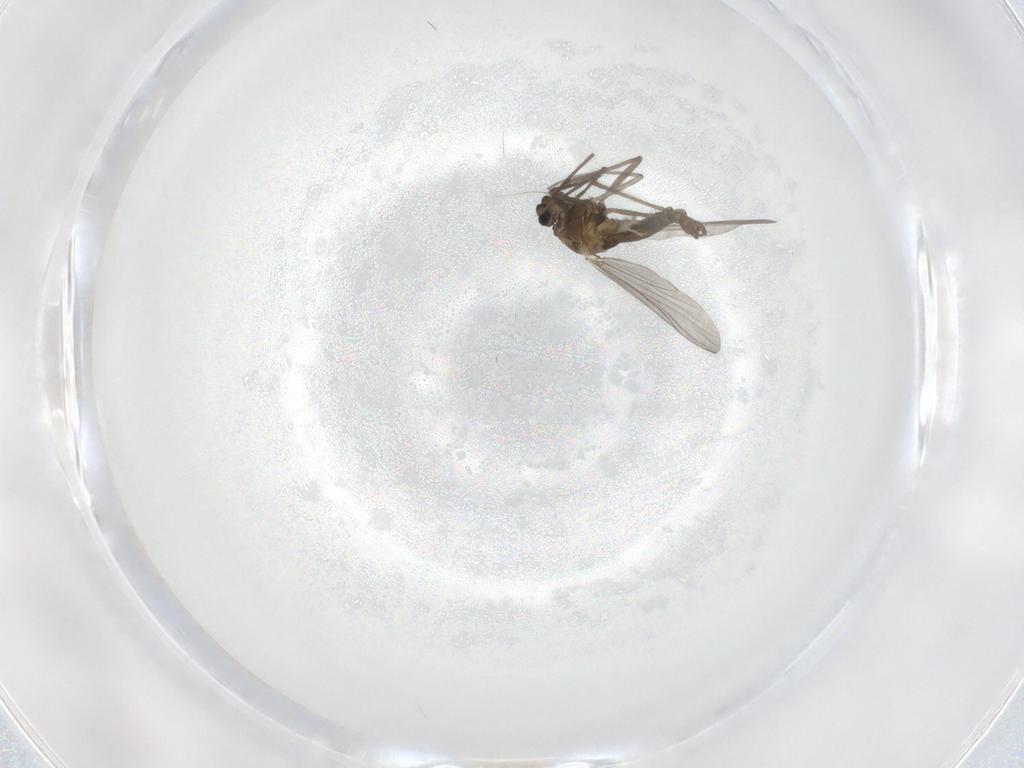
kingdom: Animalia
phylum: Arthropoda
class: Insecta
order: Diptera
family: Chironomidae
